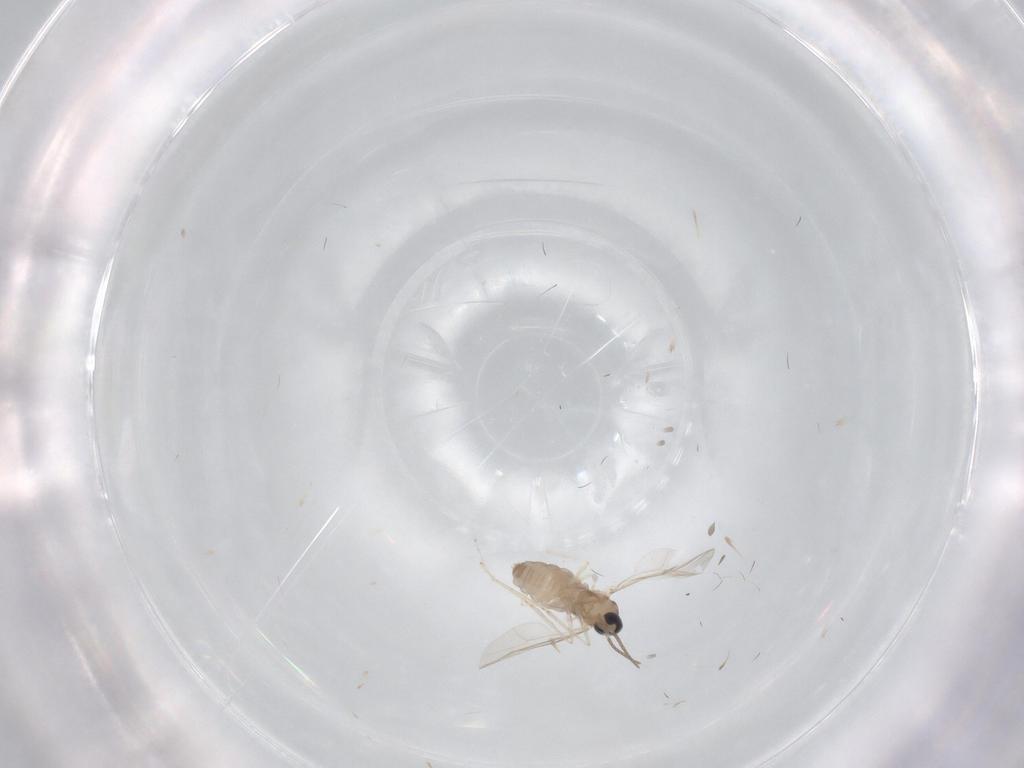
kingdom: Animalia
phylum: Arthropoda
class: Insecta
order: Diptera
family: Cecidomyiidae
